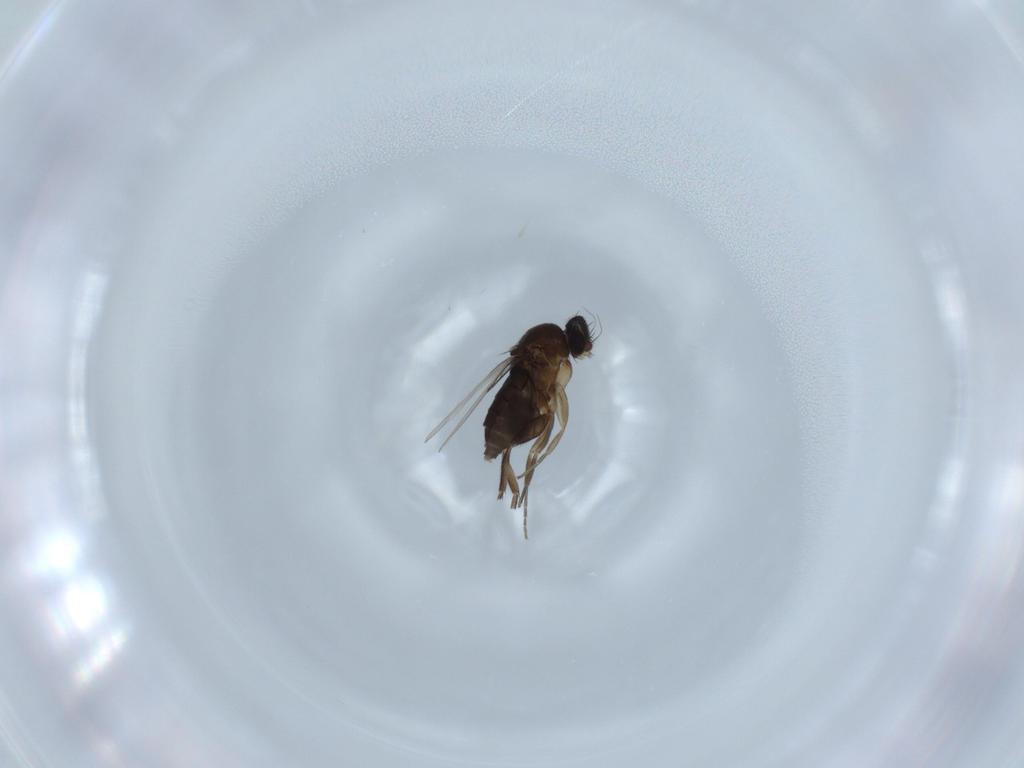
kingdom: Animalia
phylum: Arthropoda
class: Insecta
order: Diptera
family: Phoridae
